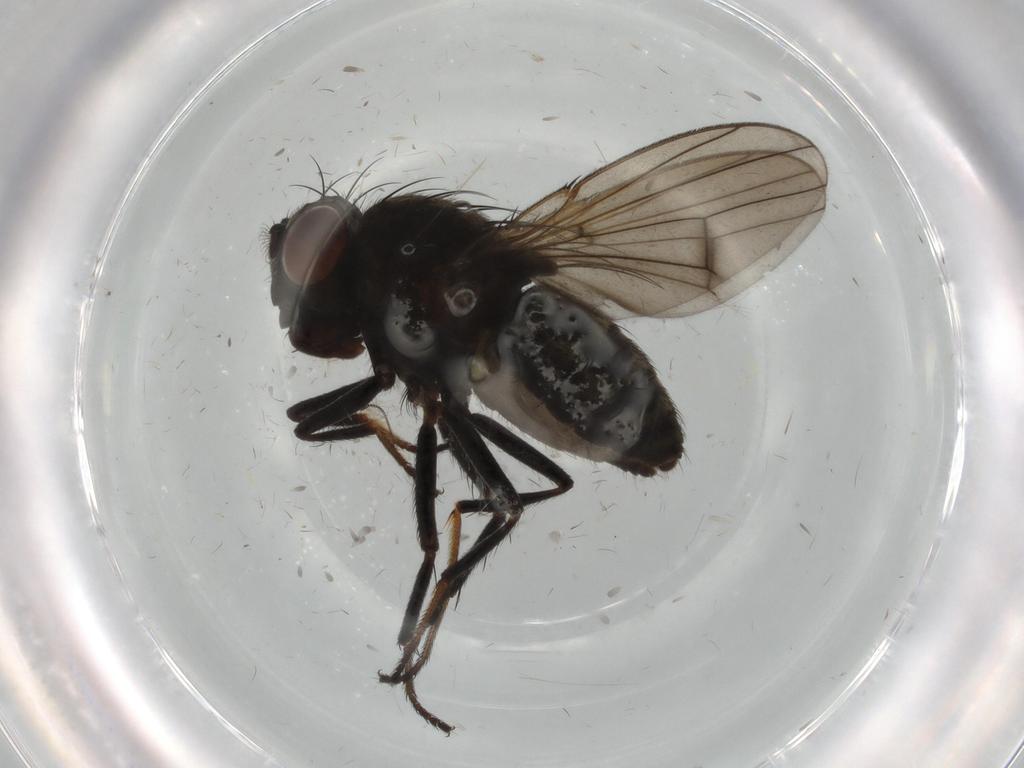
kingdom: Animalia
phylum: Arthropoda
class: Insecta
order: Diptera
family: Ephydridae
